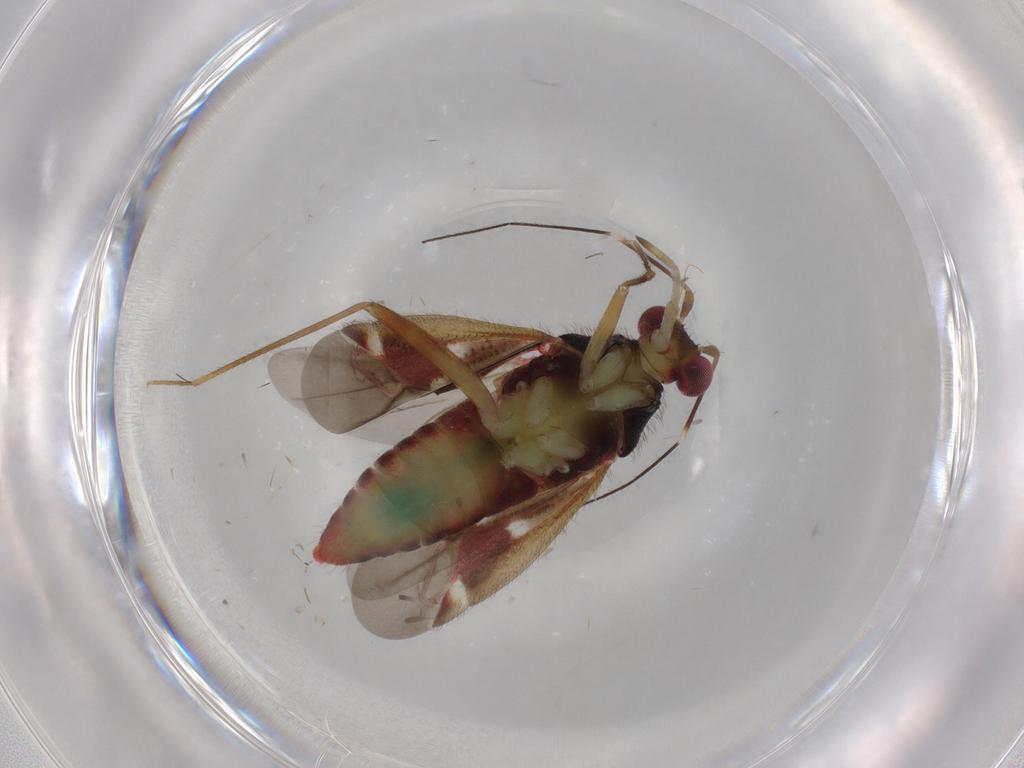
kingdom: Animalia
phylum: Arthropoda
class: Insecta
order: Hemiptera
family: Miridae
